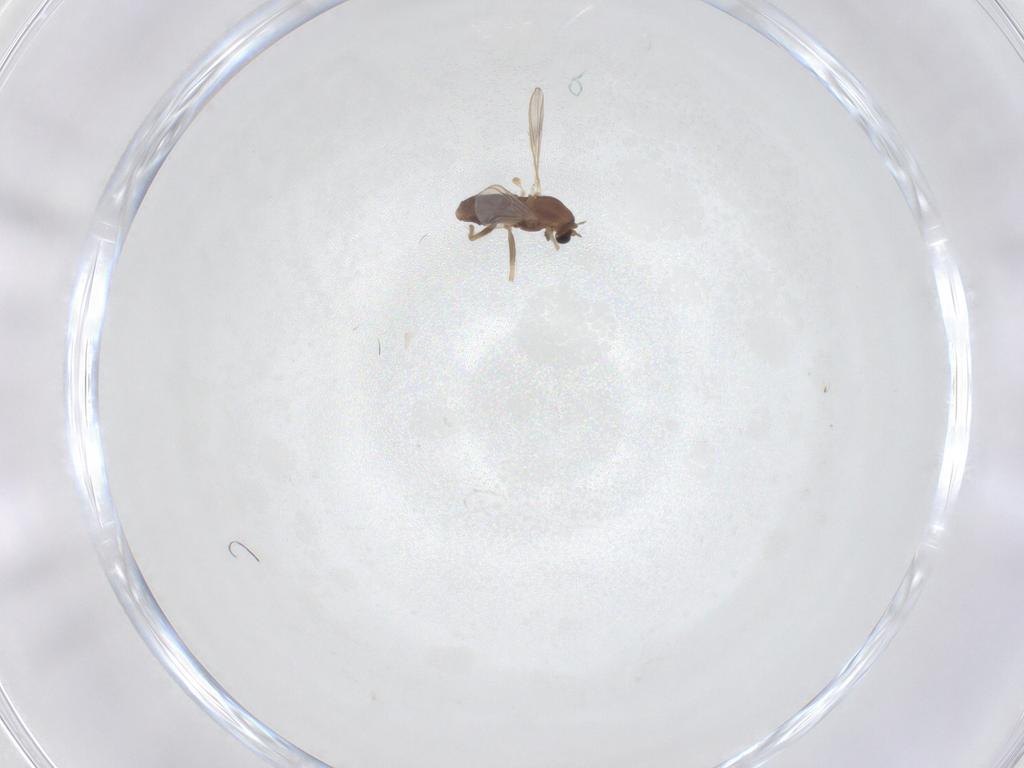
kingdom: Animalia
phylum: Arthropoda
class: Insecta
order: Diptera
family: Chironomidae
